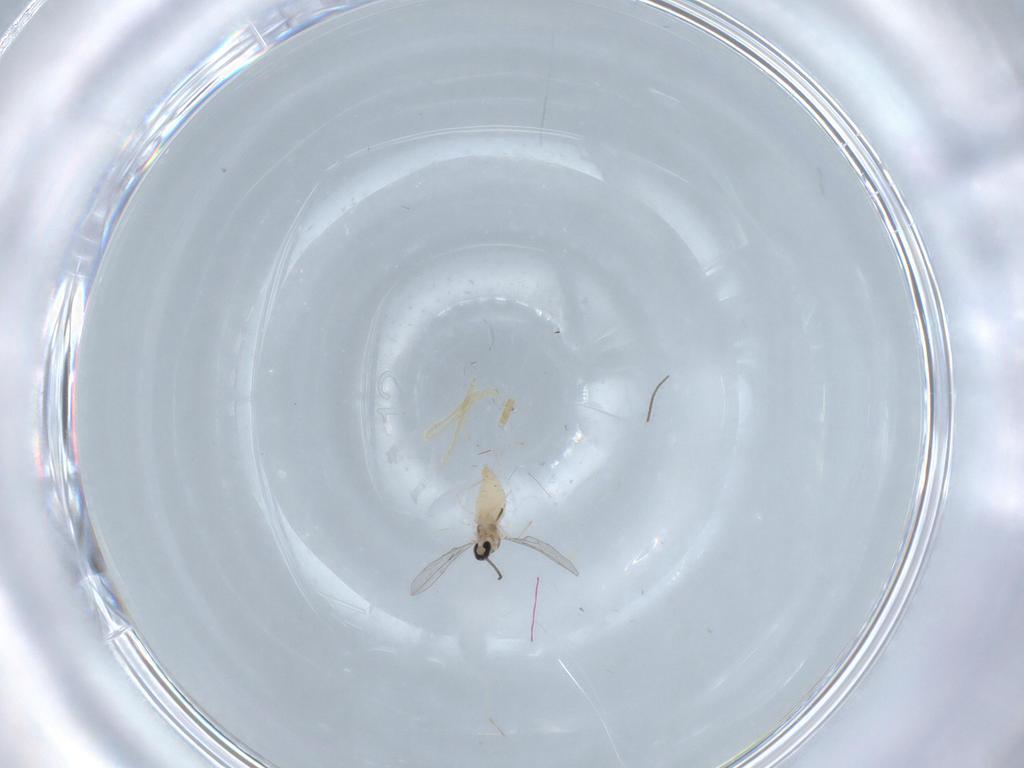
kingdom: Animalia
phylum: Arthropoda
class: Insecta
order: Diptera
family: Cecidomyiidae
